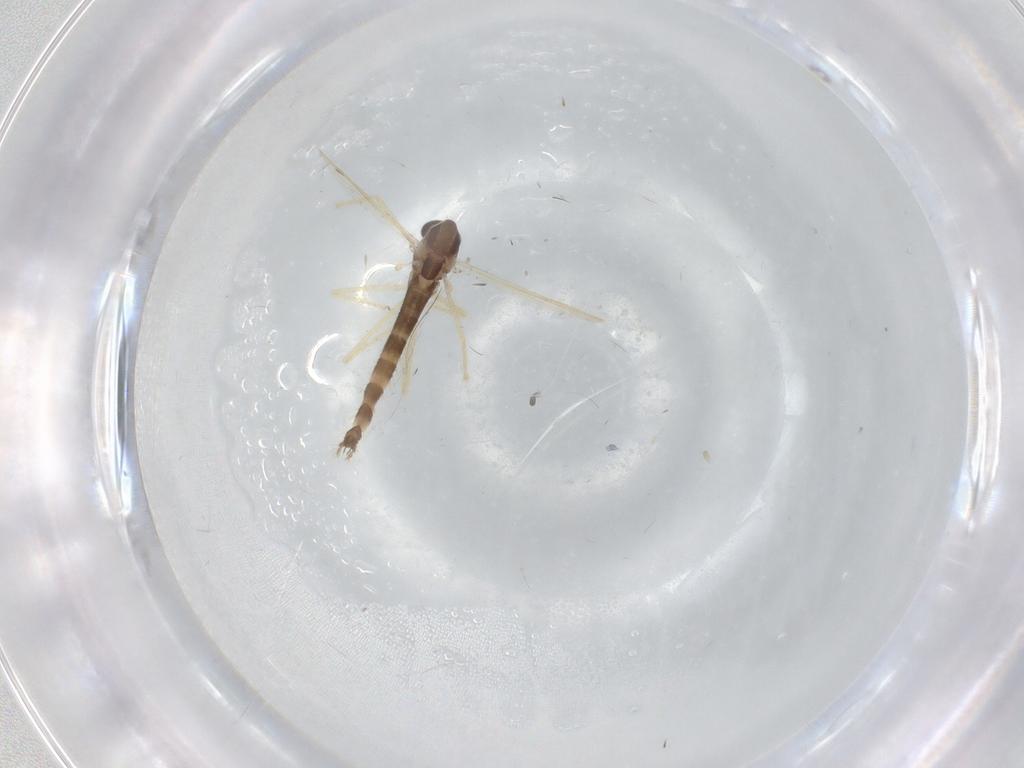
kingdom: Animalia
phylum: Arthropoda
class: Insecta
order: Diptera
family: Chironomidae
